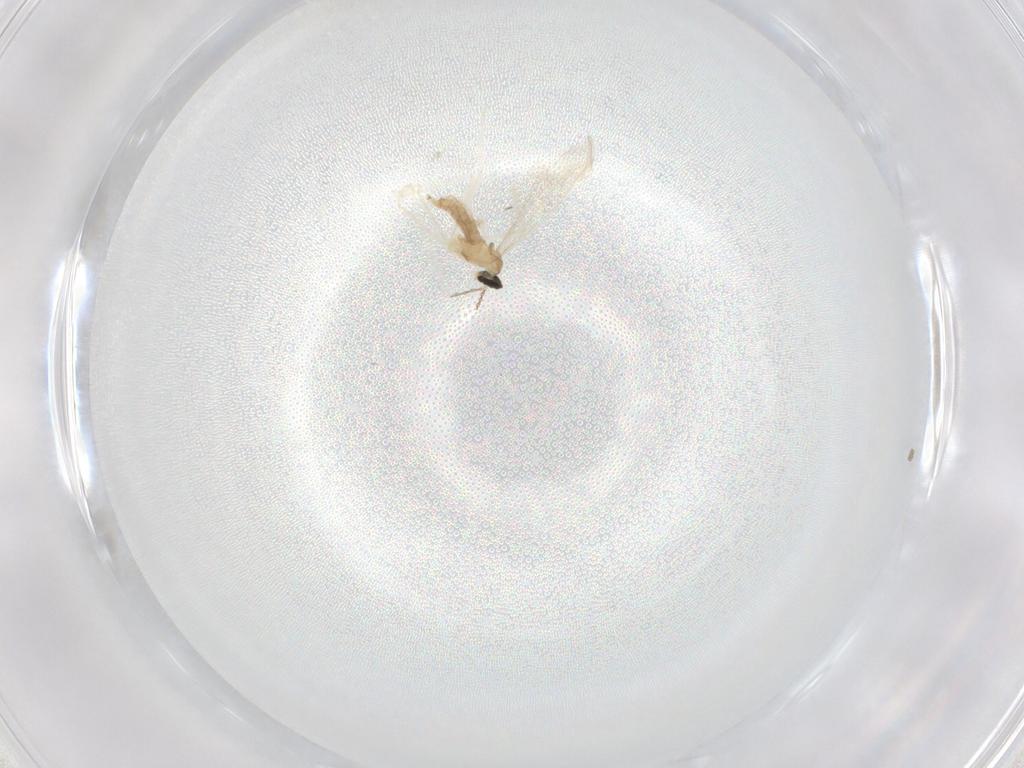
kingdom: Animalia
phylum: Arthropoda
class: Insecta
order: Diptera
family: Cecidomyiidae
